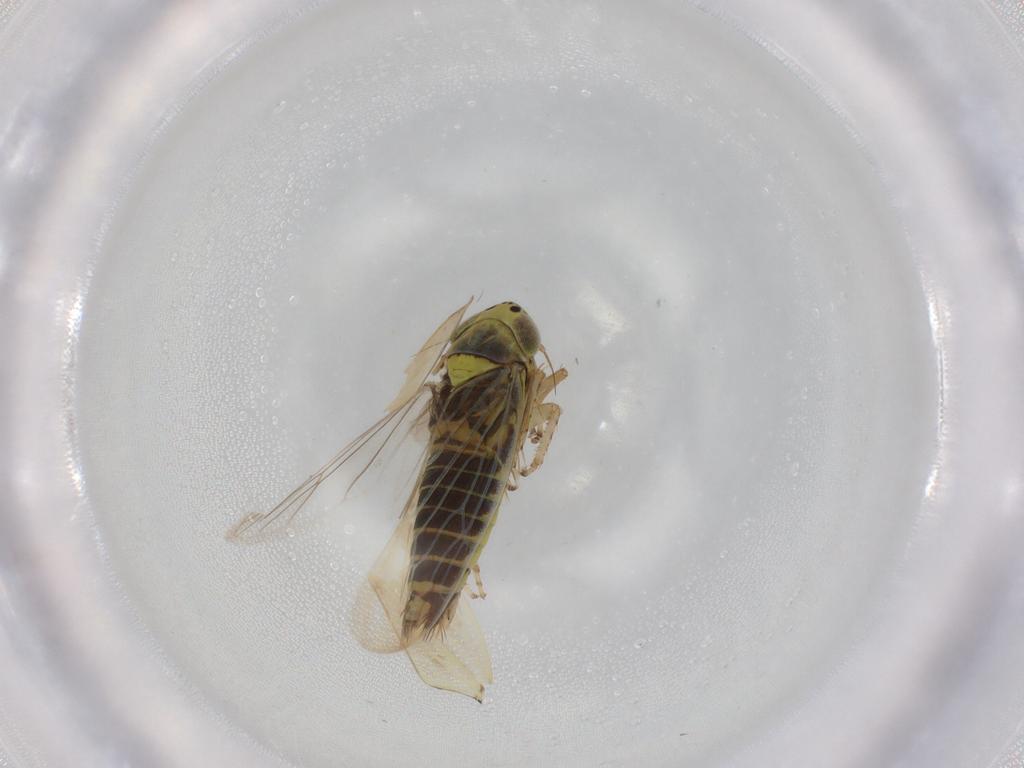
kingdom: Animalia
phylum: Arthropoda
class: Insecta
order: Hemiptera
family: Cicadellidae
